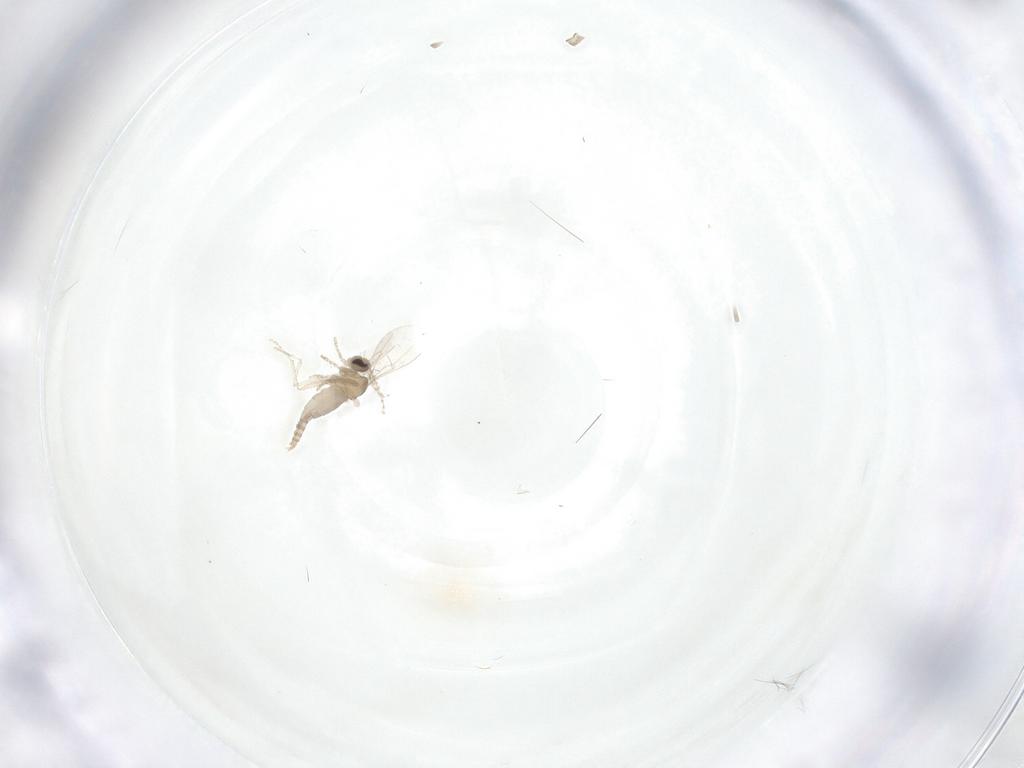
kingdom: Animalia
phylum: Arthropoda
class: Insecta
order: Diptera
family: Cecidomyiidae
